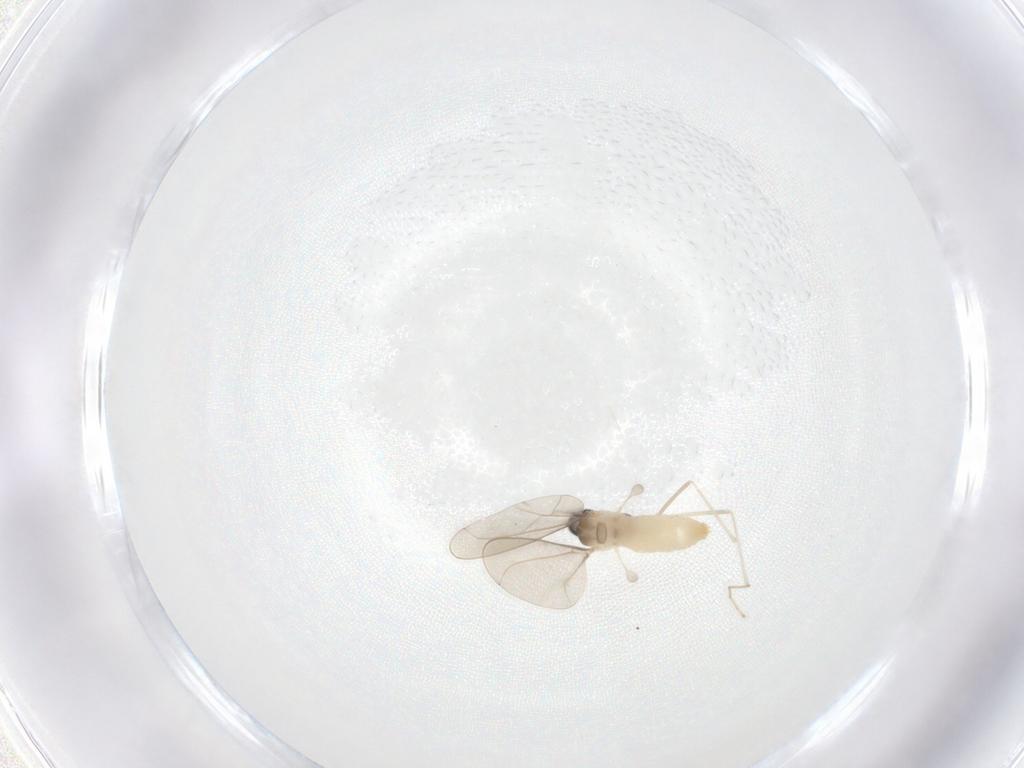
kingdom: Animalia
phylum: Arthropoda
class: Insecta
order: Diptera
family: Cecidomyiidae
